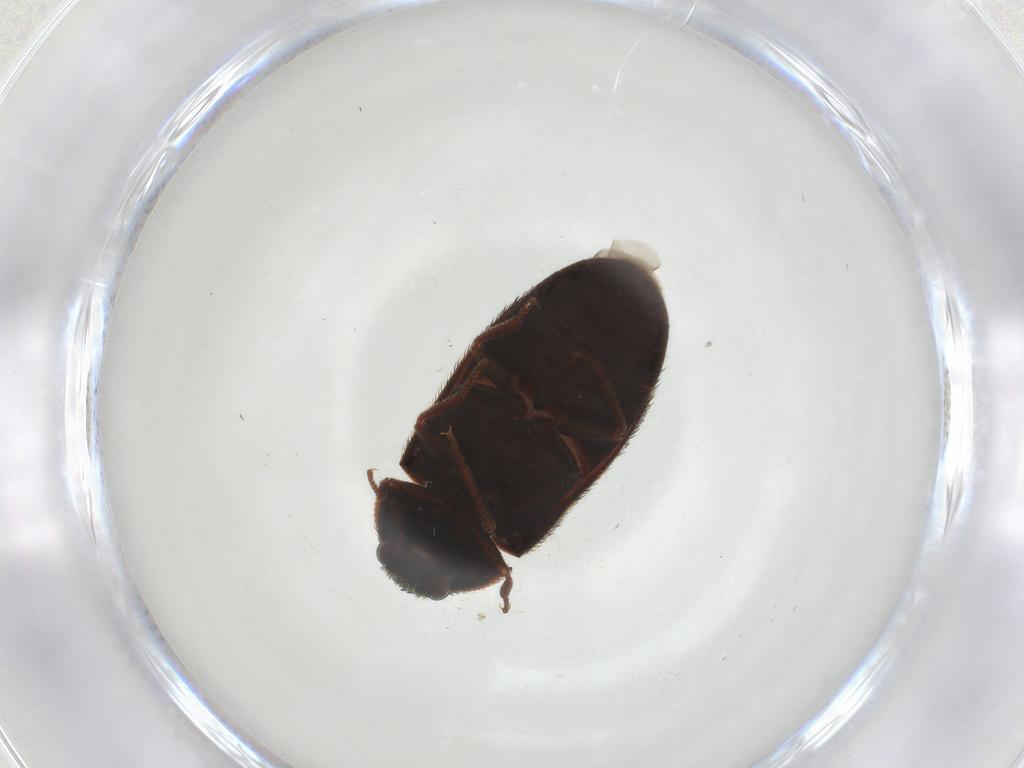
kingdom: Animalia
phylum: Arthropoda
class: Insecta
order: Coleoptera
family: Dermestidae
